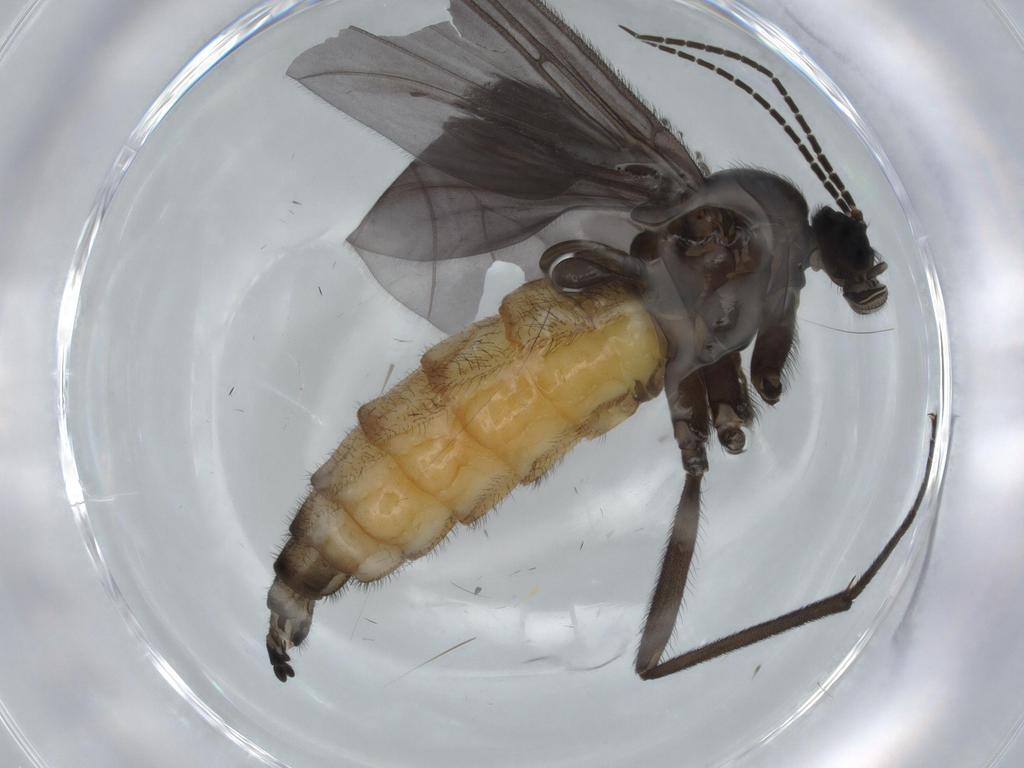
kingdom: Animalia
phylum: Arthropoda
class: Insecta
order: Diptera
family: Sciaridae
